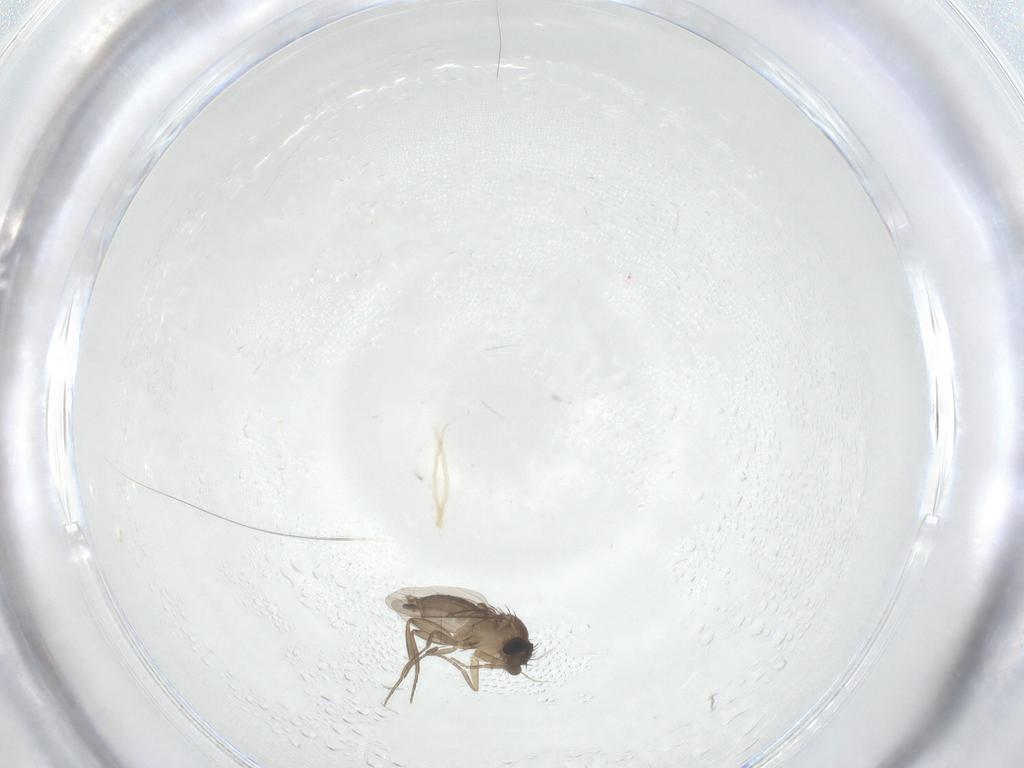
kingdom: Animalia
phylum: Arthropoda
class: Insecta
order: Diptera
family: Phoridae
